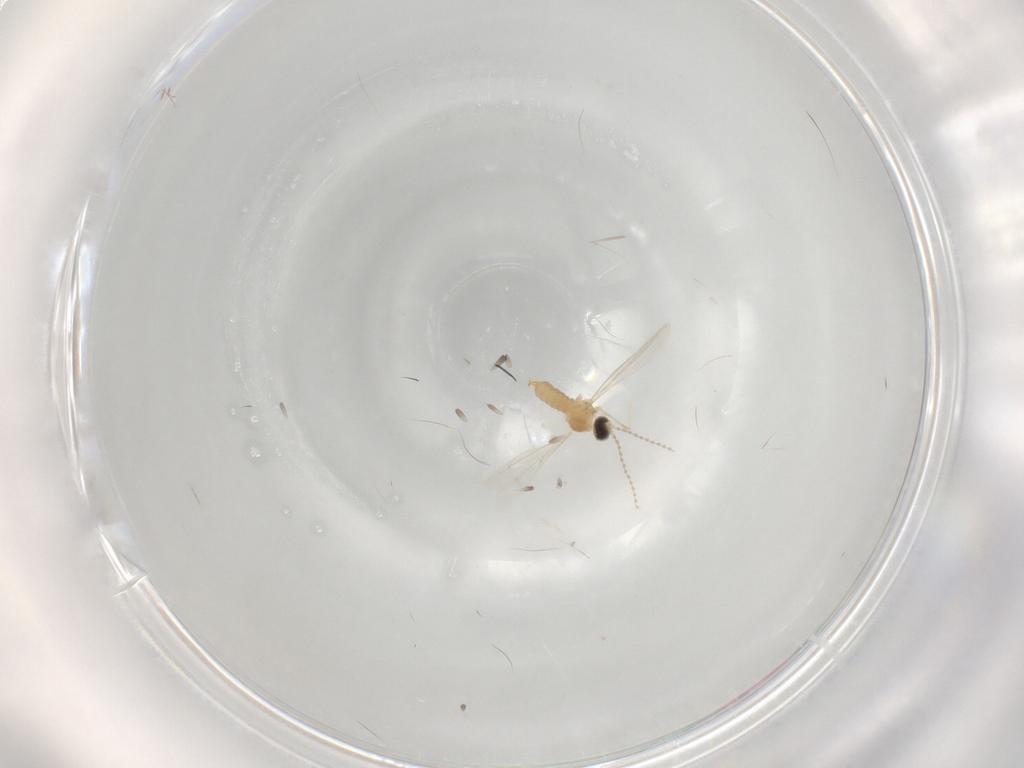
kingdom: Animalia
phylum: Arthropoda
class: Insecta
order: Diptera
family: Cecidomyiidae
